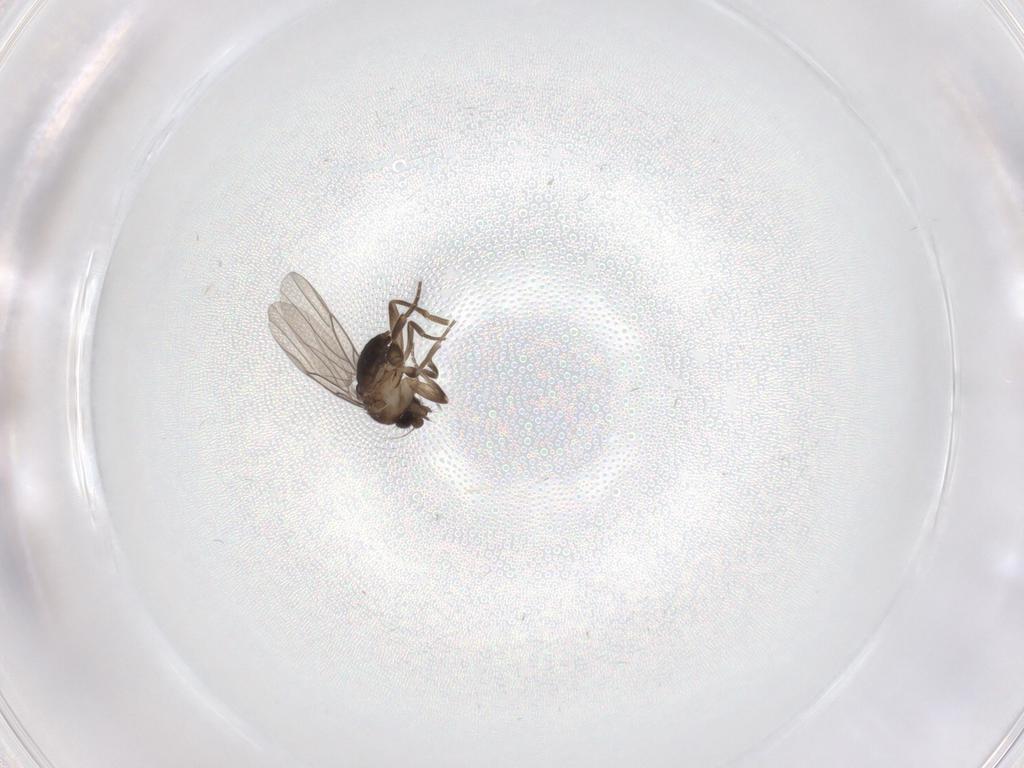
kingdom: Animalia
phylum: Arthropoda
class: Insecta
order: Diptera
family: Phoridae
